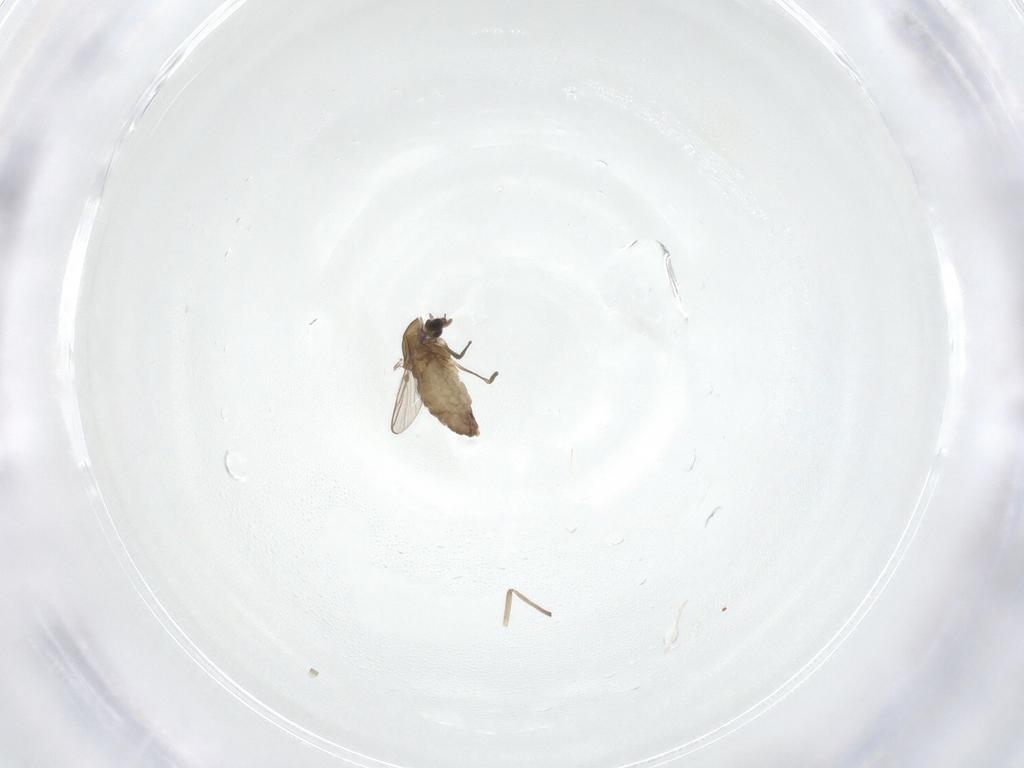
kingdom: Animalia
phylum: Arthropoda
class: Insecta
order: Diptera
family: Chironomidae
